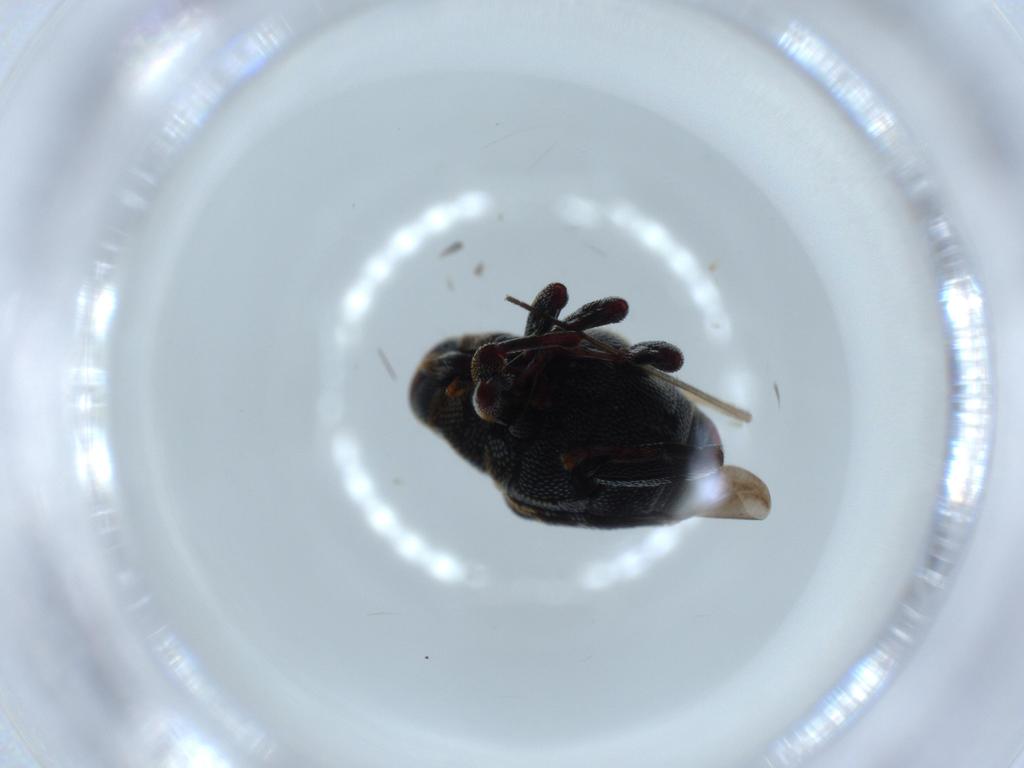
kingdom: Animalia
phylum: Arthropoda
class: Insecta
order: Coleoptera
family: Curculionidae
